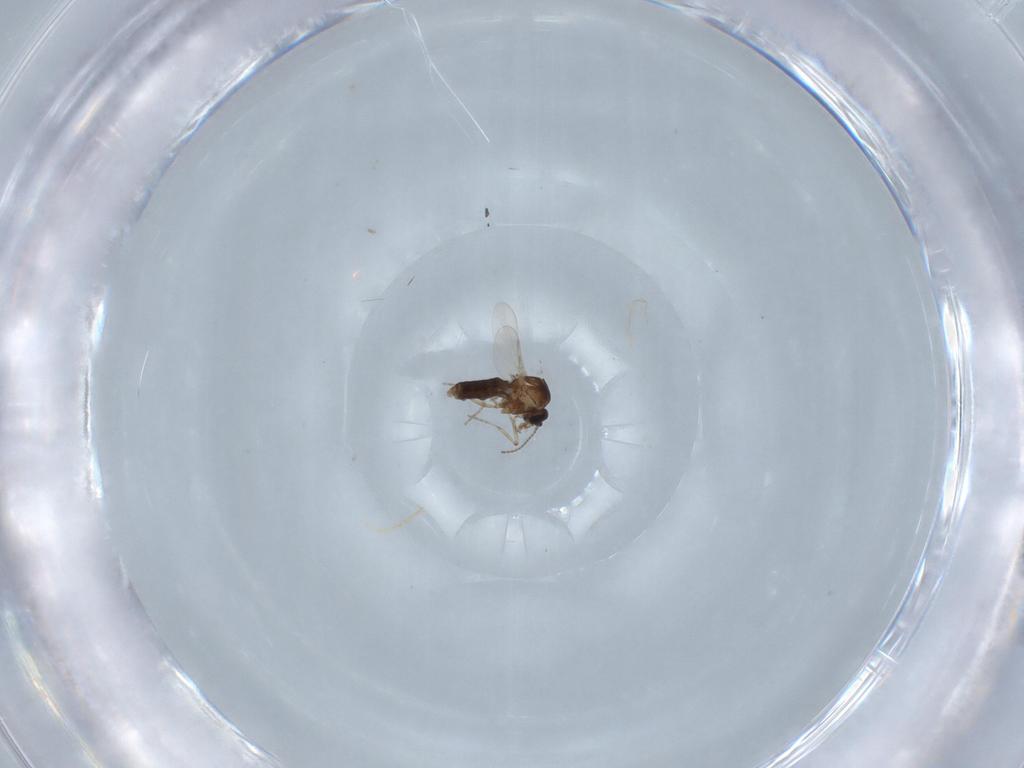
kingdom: Animalia
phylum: Arthropoda
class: Insecta
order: Diptera
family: Ceratopogonidae
